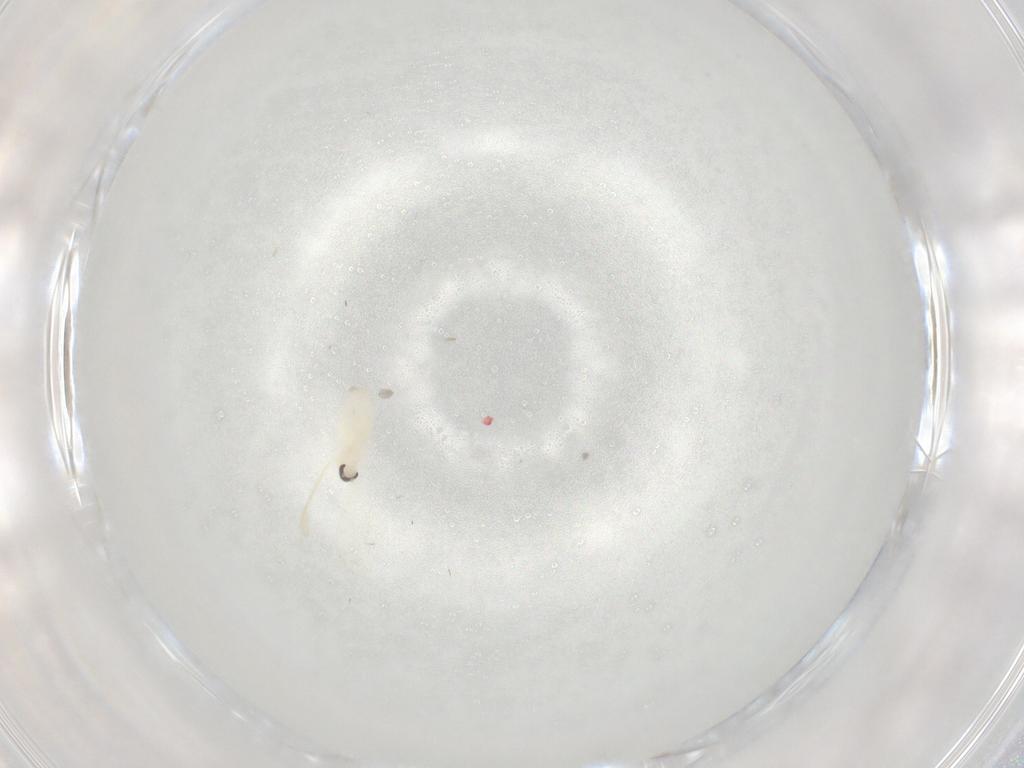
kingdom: Animalia
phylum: Arthropoda
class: Insecta
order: Diptera
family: Cecidomyiidae
